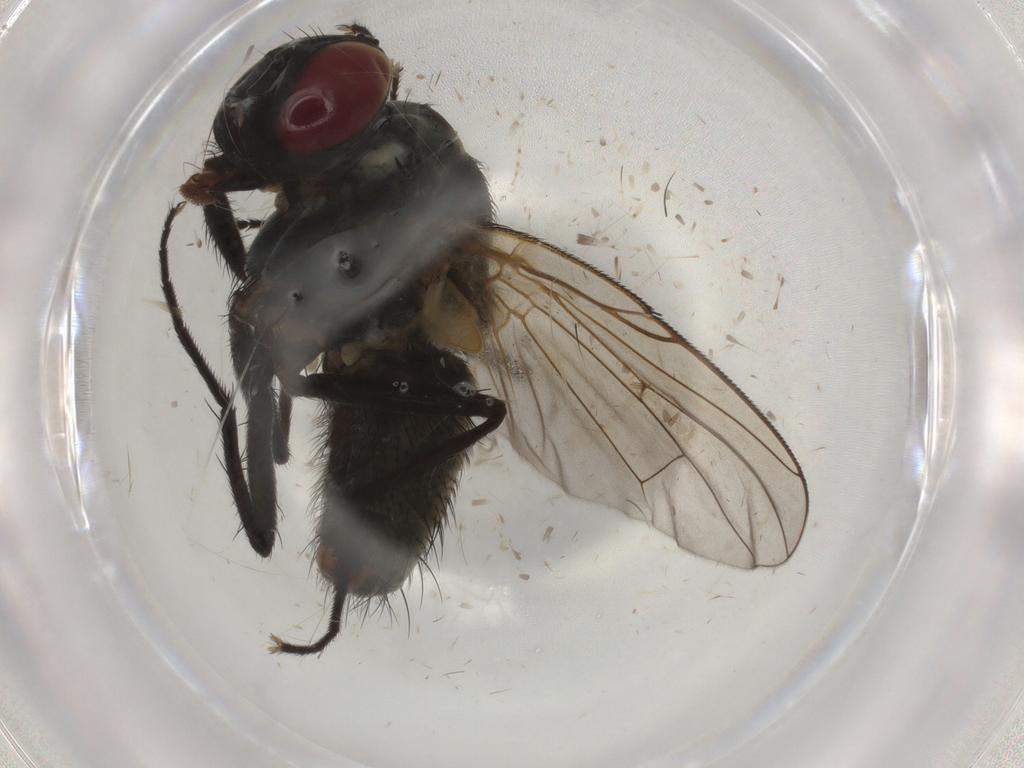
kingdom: Animalia
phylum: Arthropoda
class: Insecta
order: Diptera
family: Muscidae
